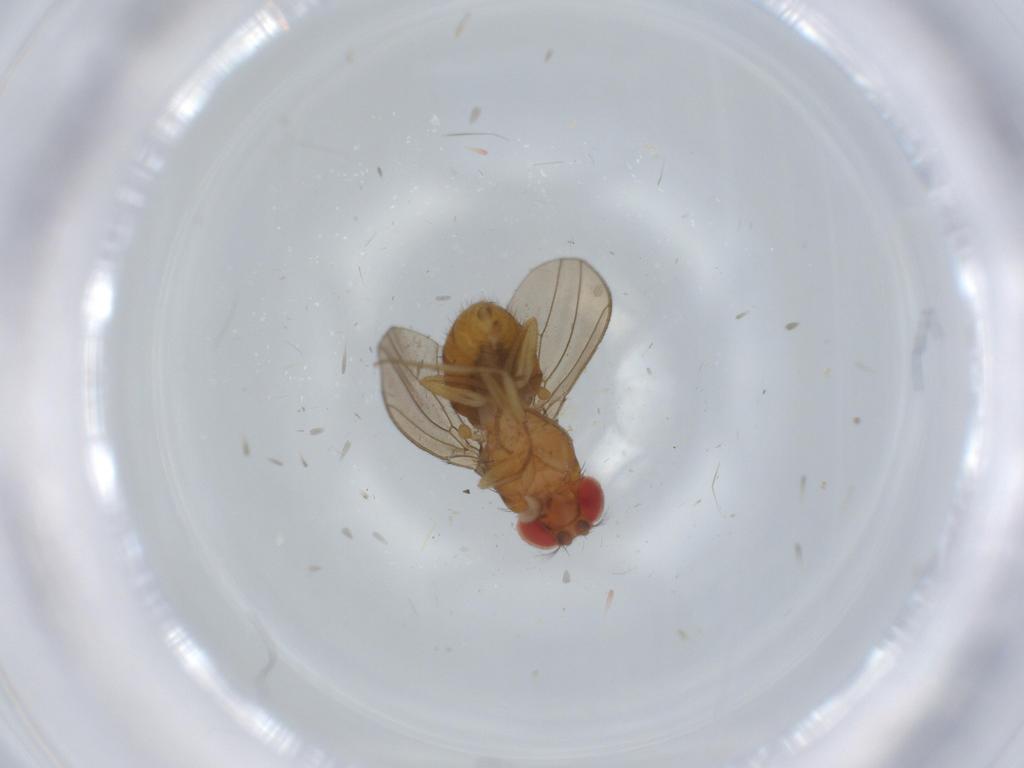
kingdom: Animalia
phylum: Arthropoda
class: Insecta
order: Diptera
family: Drosophilidae
